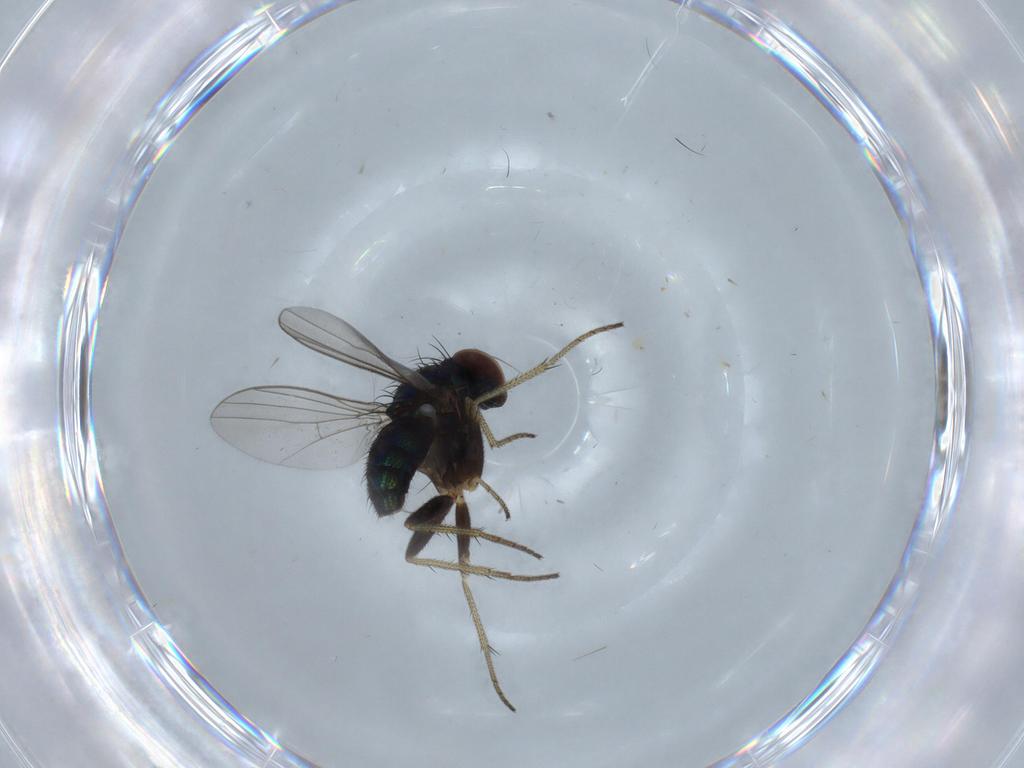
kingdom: Animalia
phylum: Arthropoda
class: Insecta
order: Diptera
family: Ceratopogonidae
